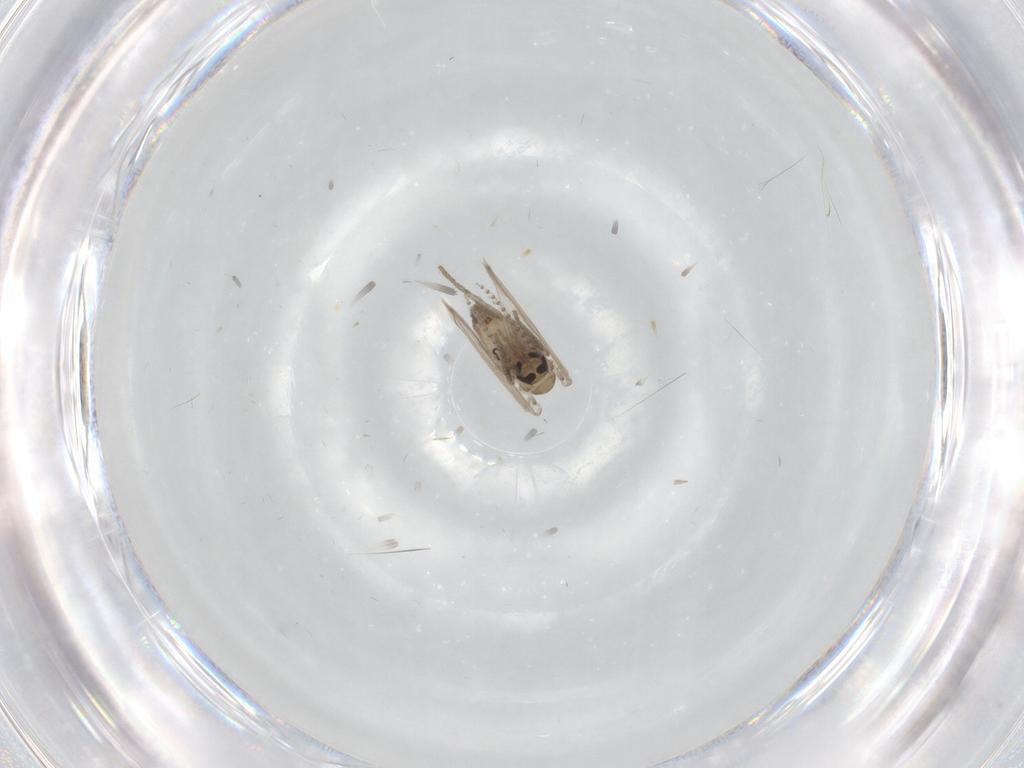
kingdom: Animalia
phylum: Arthropoda
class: Insecta
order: Diptera
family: Psychodidae
